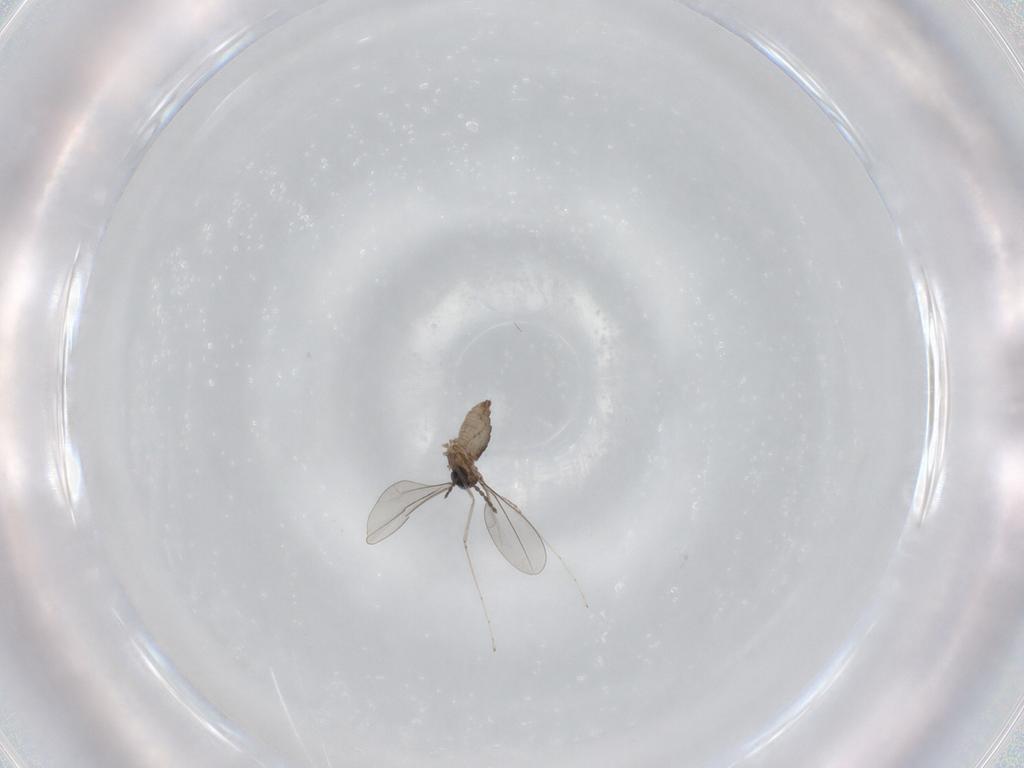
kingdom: Animalia
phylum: Arthropoda
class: Insecta
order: Diptera
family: Cecidomyiidae
